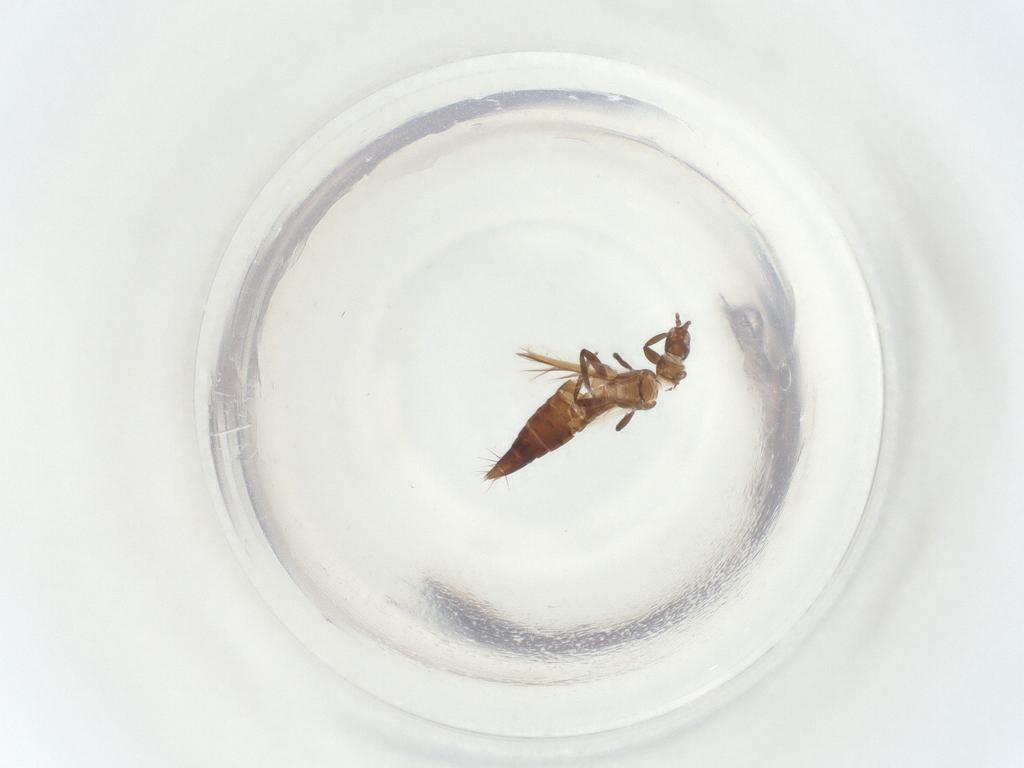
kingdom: Animalia
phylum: Arthropoda
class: Insecta
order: Thysanoptera
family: Aeolothripidae
